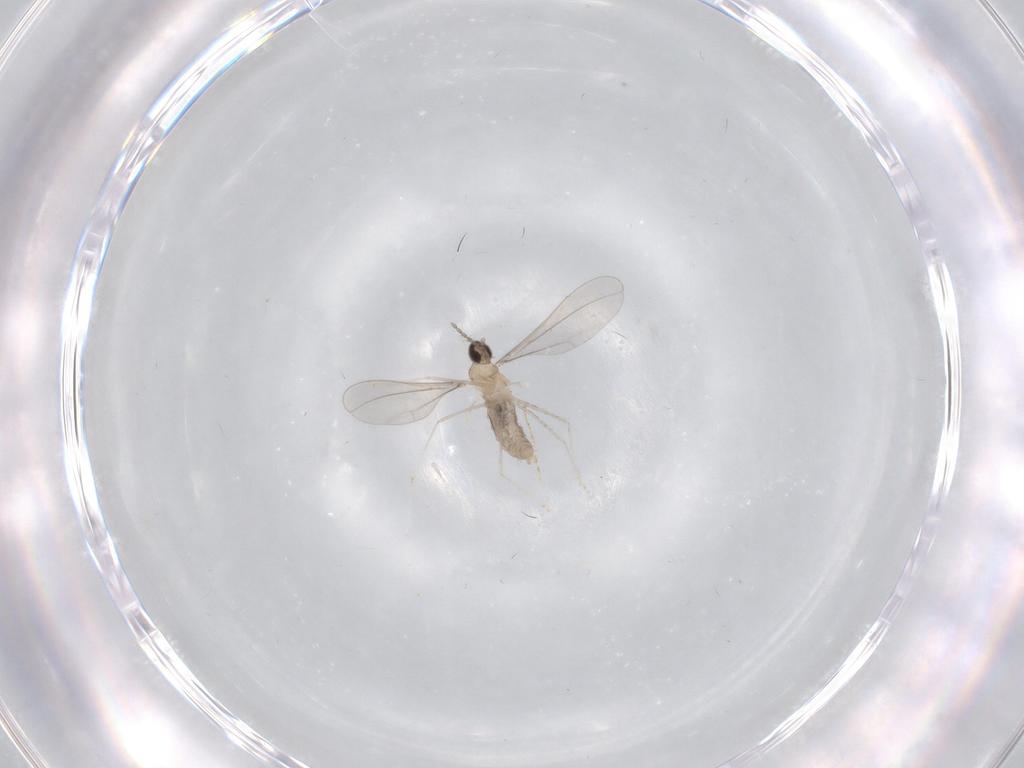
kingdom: Animalia
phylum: Arthropoda
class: Insecta
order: Diptera
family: Cecidomyiidae
